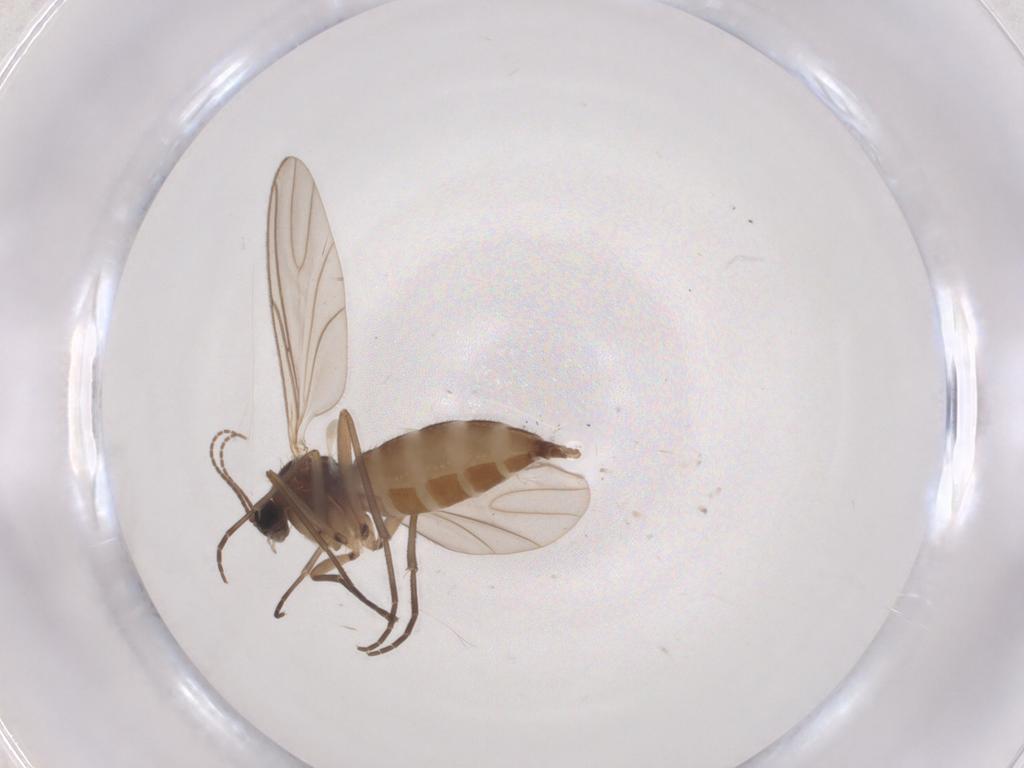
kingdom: Animalia
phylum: Arthropoda
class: Insecta
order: Diptera
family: Sciaridae
